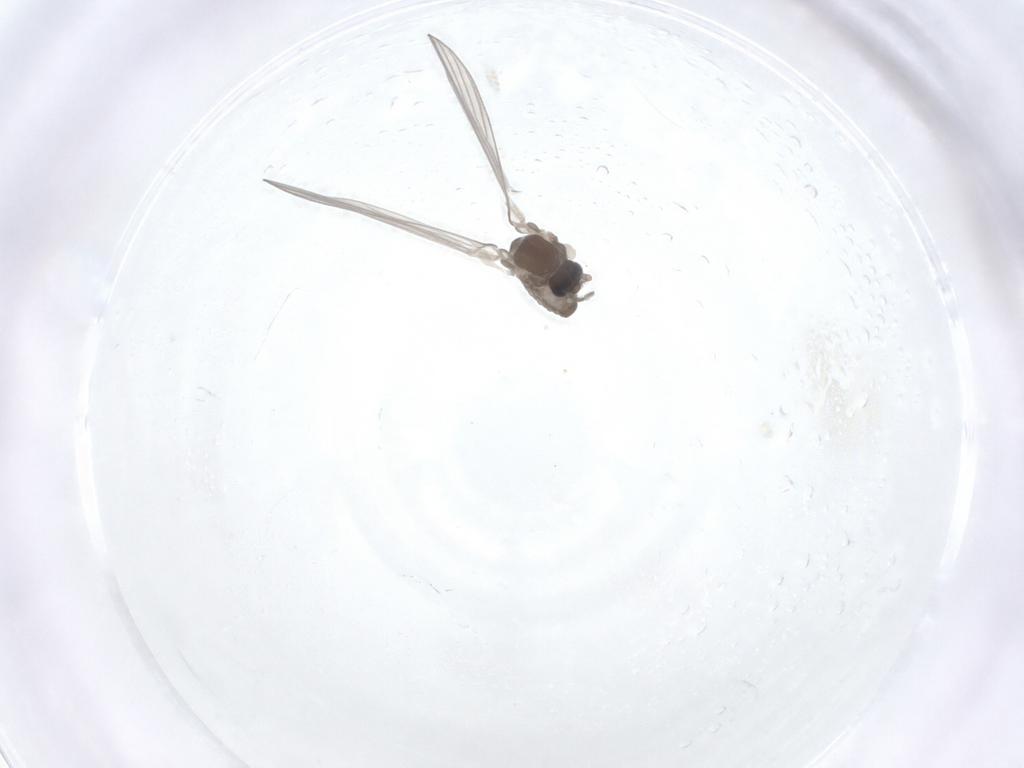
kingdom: Animalia
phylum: Arthropoda
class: Insecta
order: Diptera
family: Psychodidae
